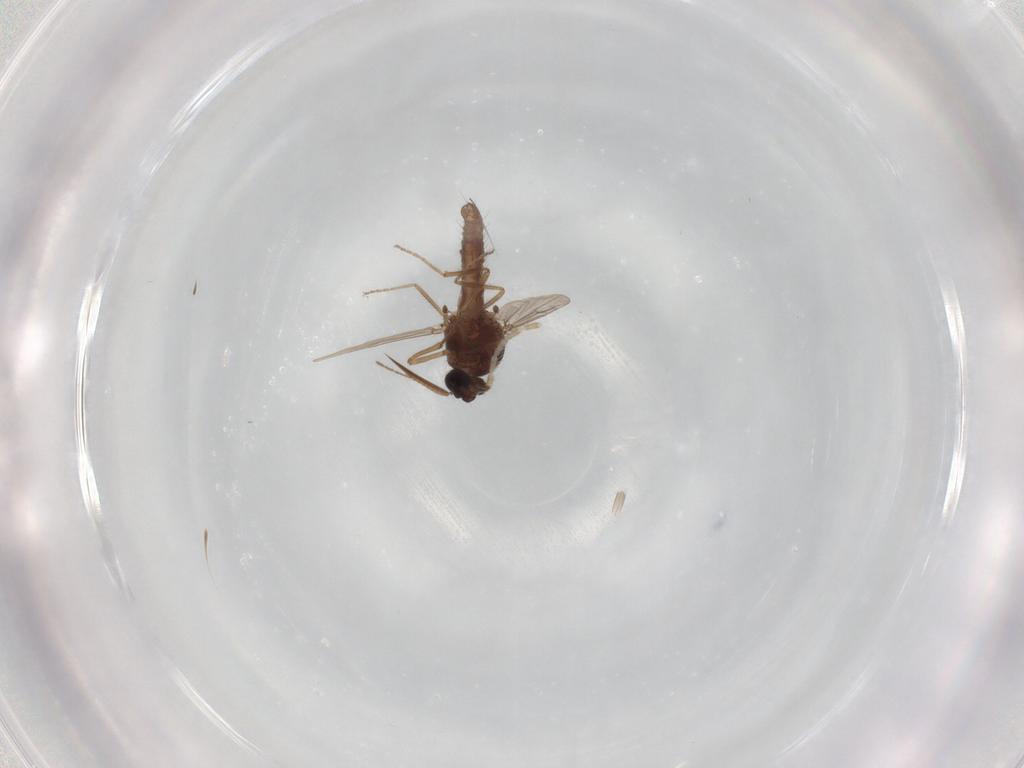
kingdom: Animalia
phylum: Arthropoda
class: Insecta
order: Diptera
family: Ceratopogonidae
